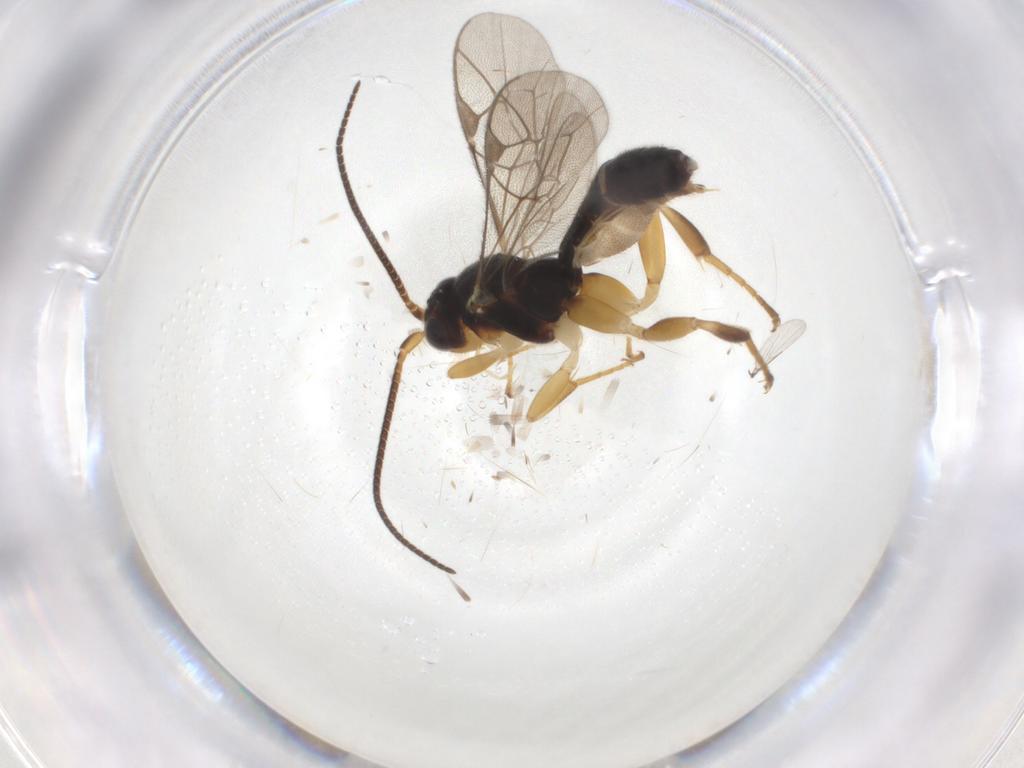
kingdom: Animalia
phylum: Arthropoda
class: Insecta
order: Hymenoptera
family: Ichneumonidae
